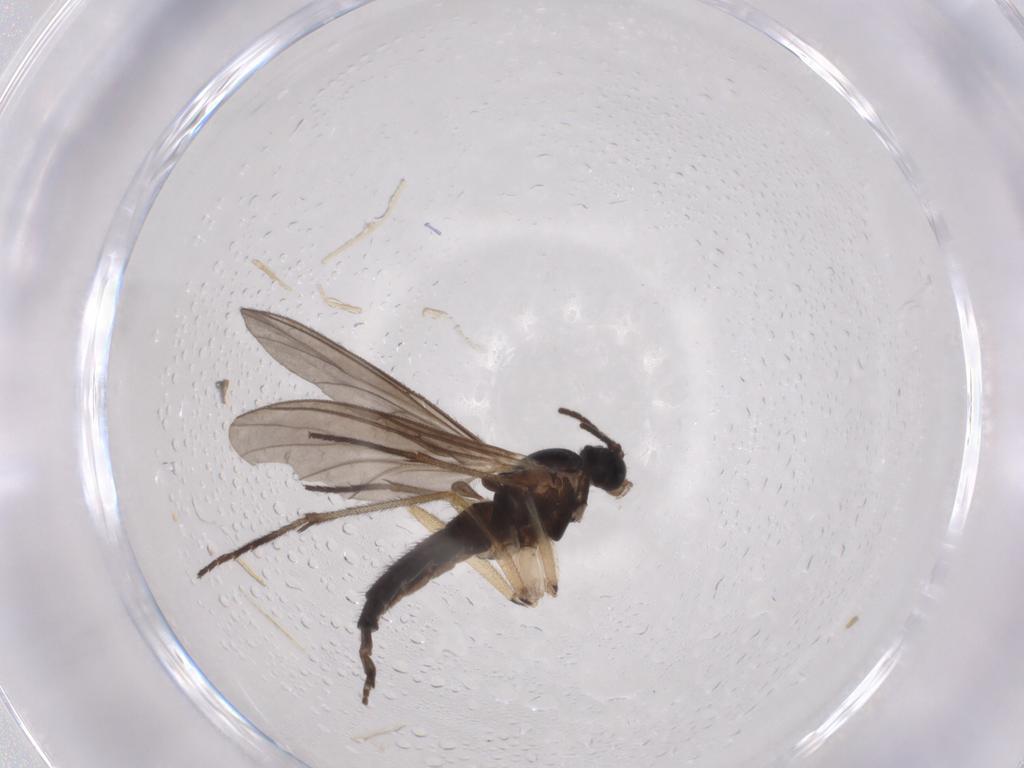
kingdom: Animalia
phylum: Arthropoda
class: Insecta
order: Diptera
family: Limoniidae
